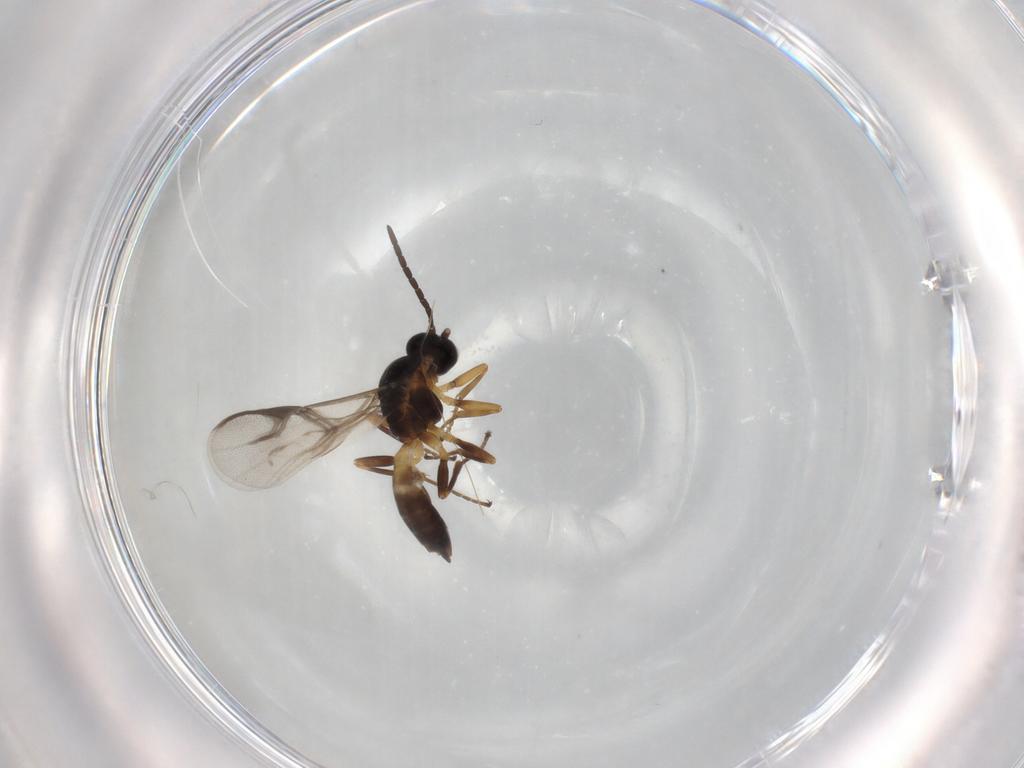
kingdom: Animalia
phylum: Arthropoda
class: Insecta
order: Hymenoptera
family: Braconidae
